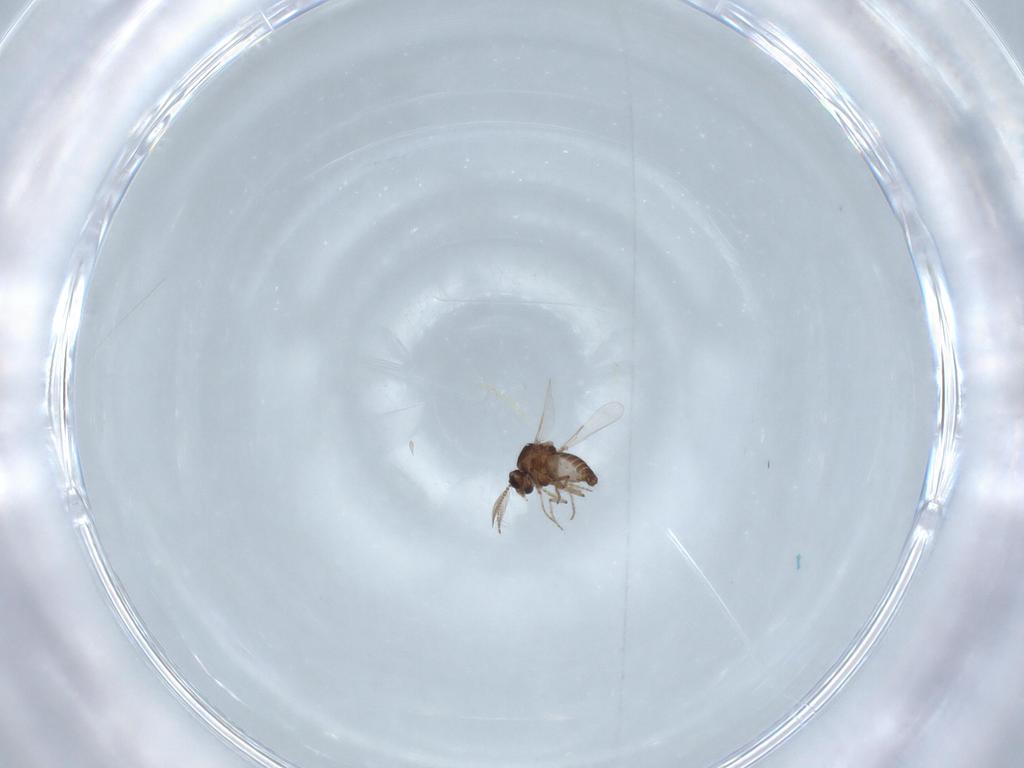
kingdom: Animalia
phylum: Arthropoda
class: Insecta
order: Diptera
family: Ceratopogonidae
